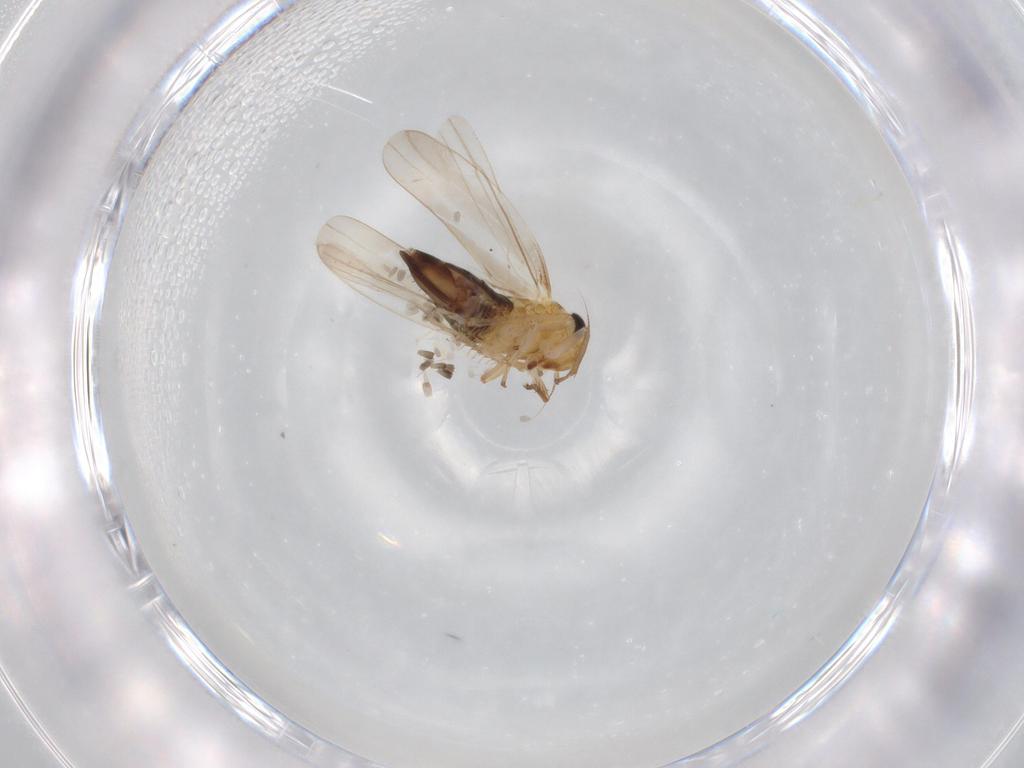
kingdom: Animalia
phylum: Arthropoda
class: Insecta
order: Hemiptera
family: Cicadellidae
